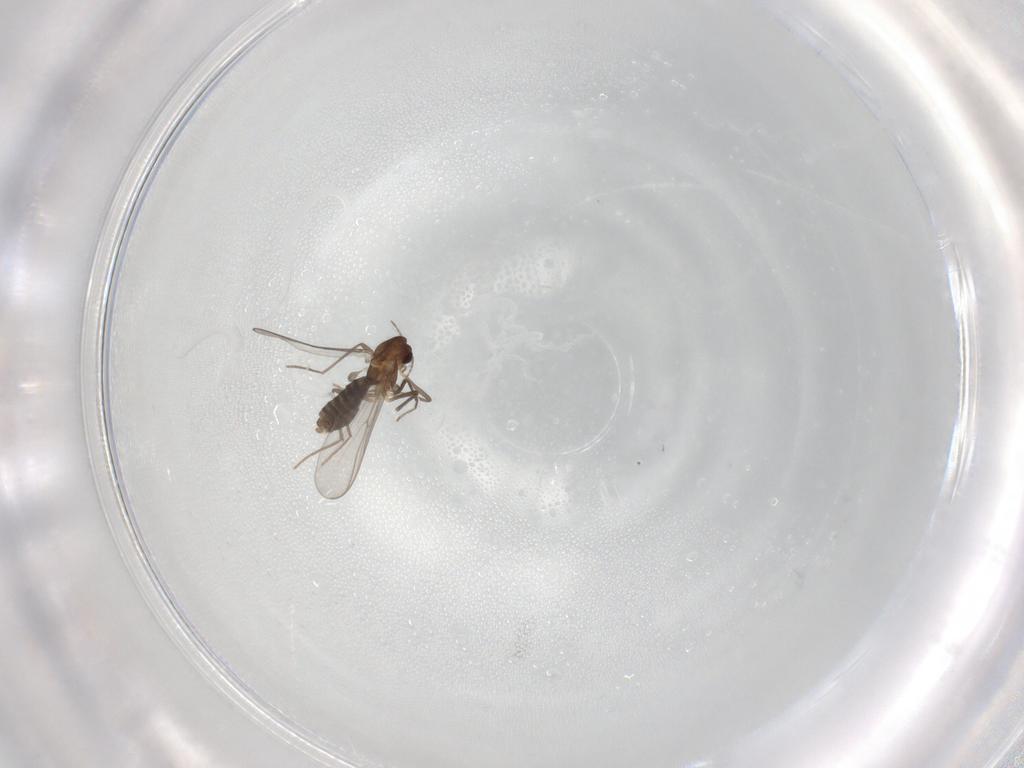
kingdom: Animalia
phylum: Arthropoda
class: Insecta
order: Diptera
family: Chironomidae
